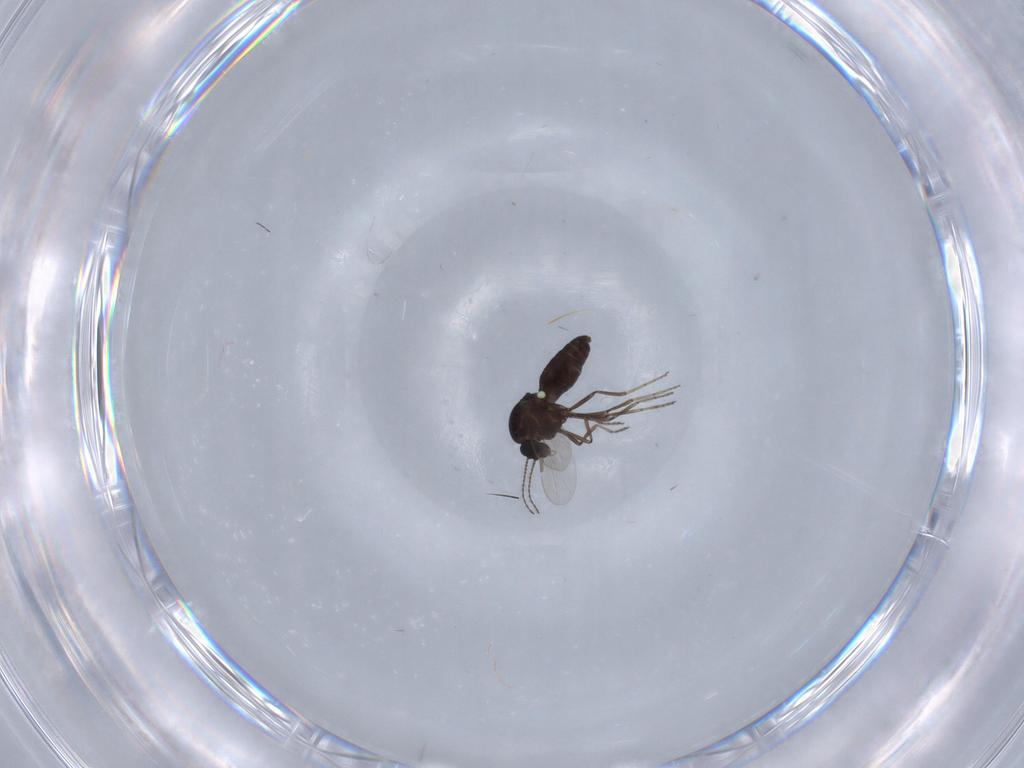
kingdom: Animalia
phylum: Arthropoda
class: Insecta
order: Diptera
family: Ceratopogonidae
